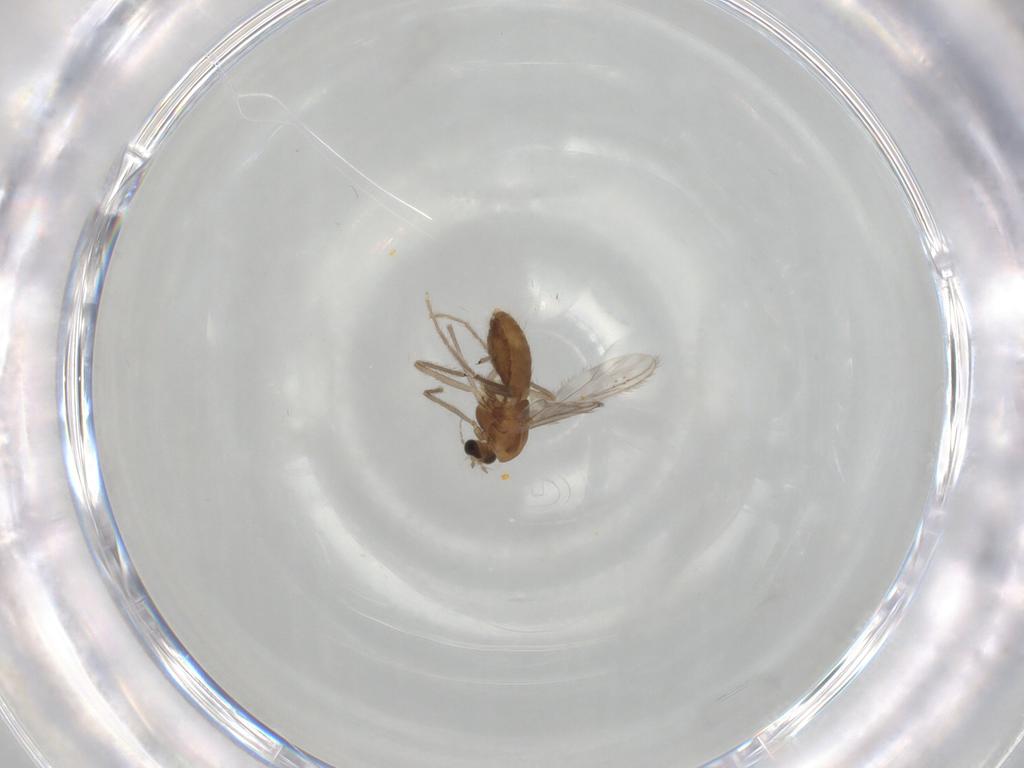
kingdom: Animalia
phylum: Arthropoda
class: Insecta
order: Diptera
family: Chironomidae
